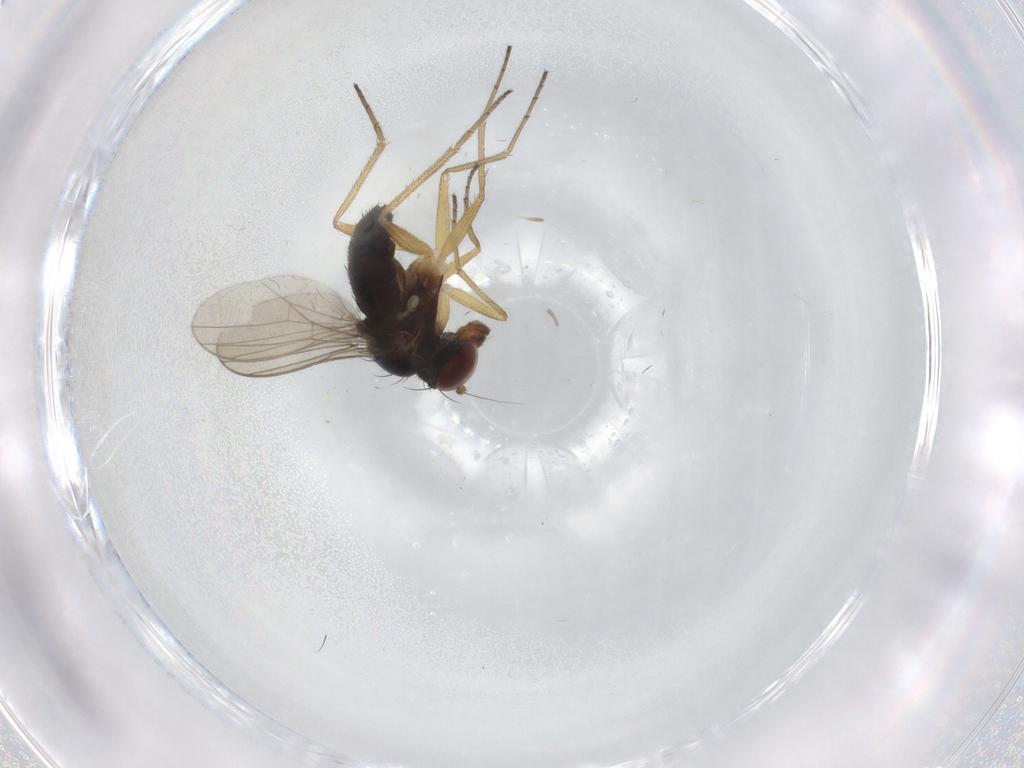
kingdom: Animalia
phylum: Arthropoda
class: Insecta
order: Diptera
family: Dolichopodidae
